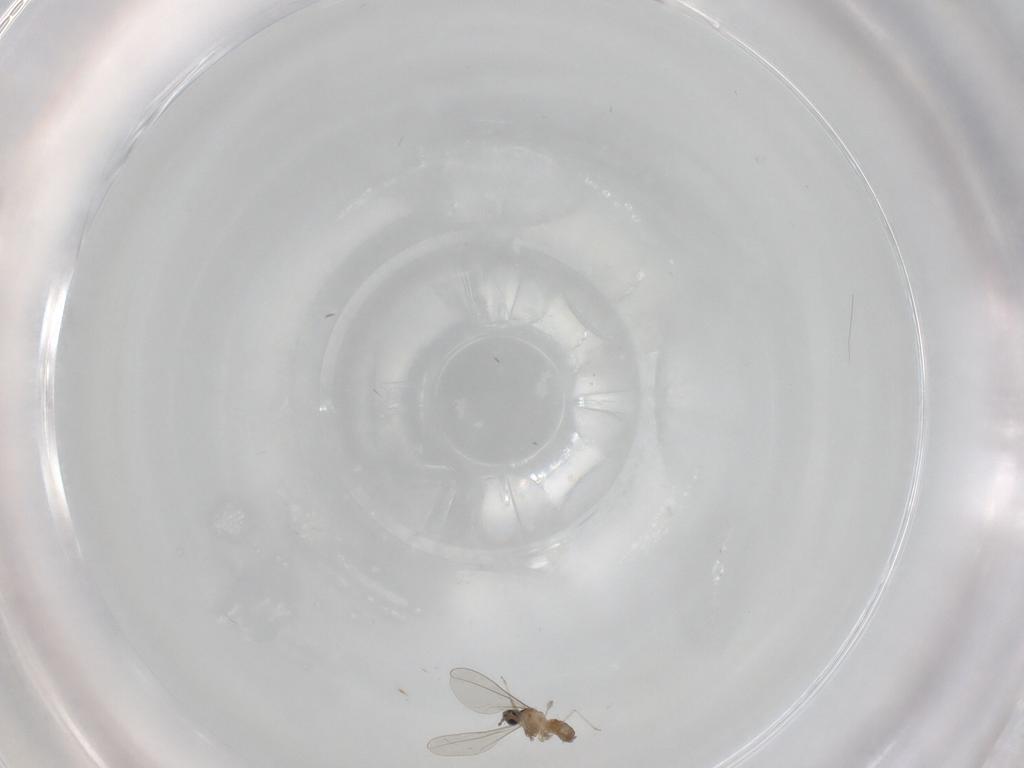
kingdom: Animalia
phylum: Arthropoda
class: Insecta
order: Diptera
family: Cecidomyiidae
